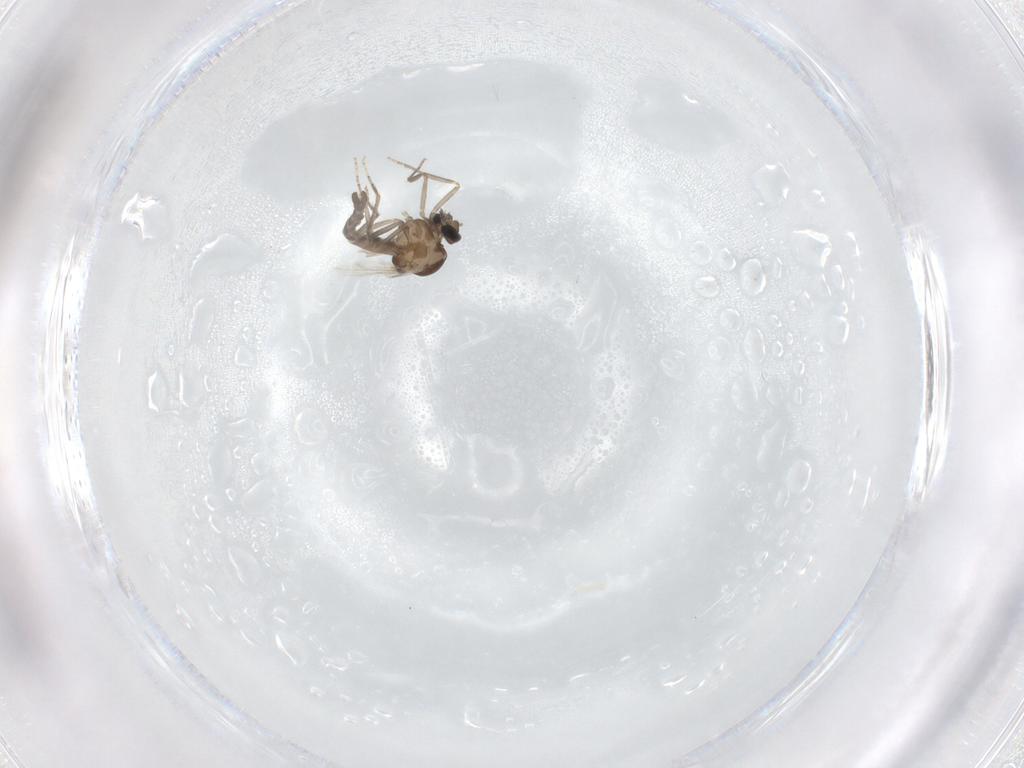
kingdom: Animalia
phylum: Arthropoda
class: Insecta
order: Diptera
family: Ceratopogonidae
